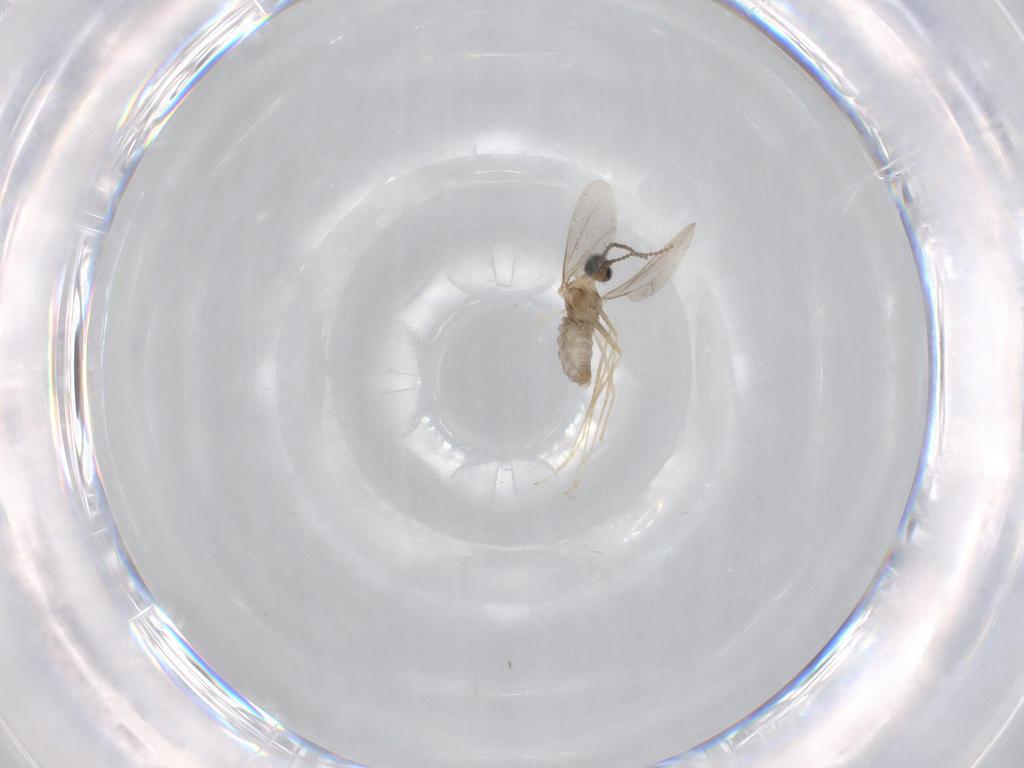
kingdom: Animalia
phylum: Arthropoda
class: Insecta
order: Diptera
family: Cecidomyiidae
